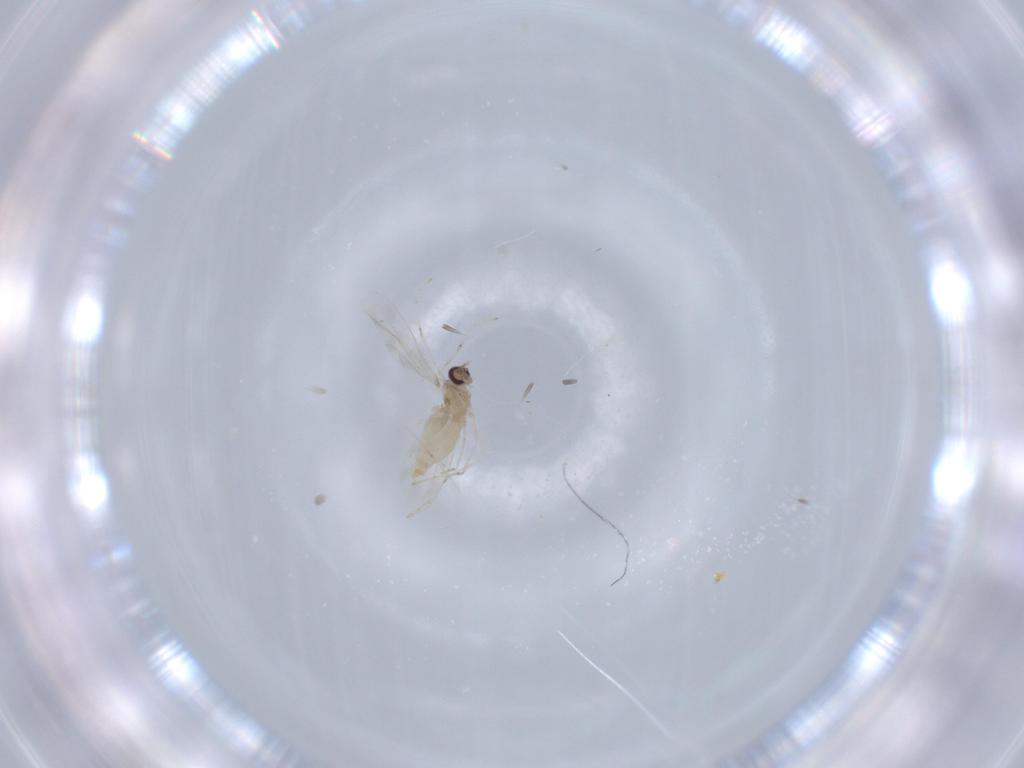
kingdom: Animalia
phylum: Arthropoda
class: Insecta
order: Diptera
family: Cecidomyiidae
